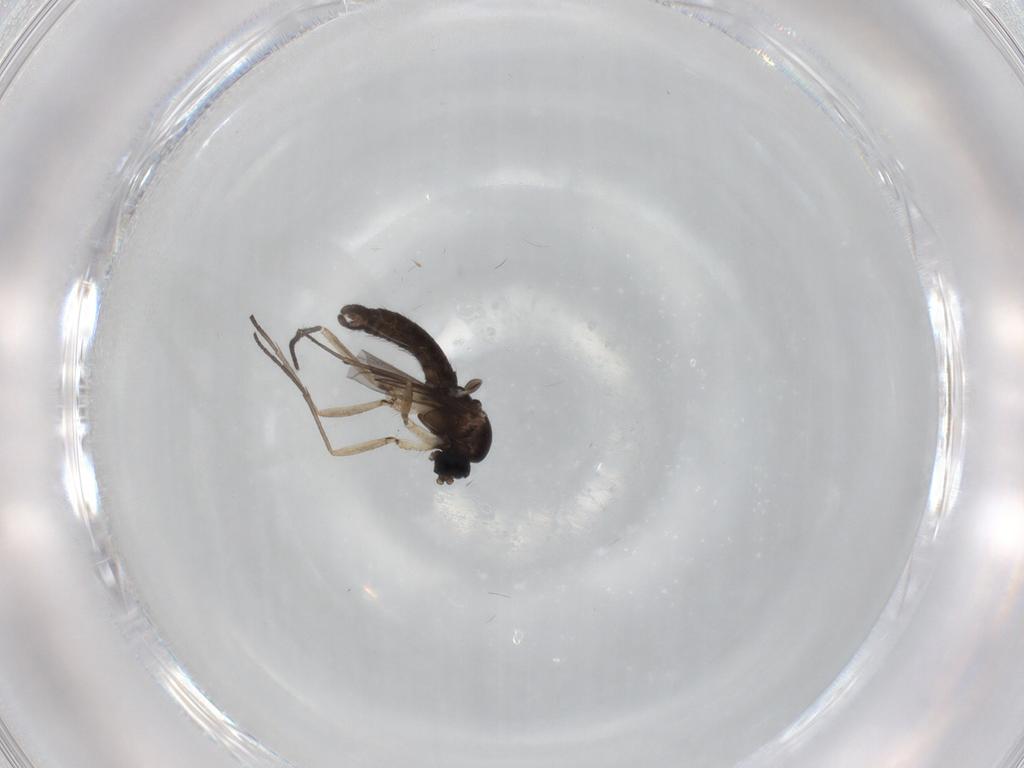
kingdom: Animalia
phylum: Arthropoda
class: Insecta
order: Diptera
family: Sciaridae
